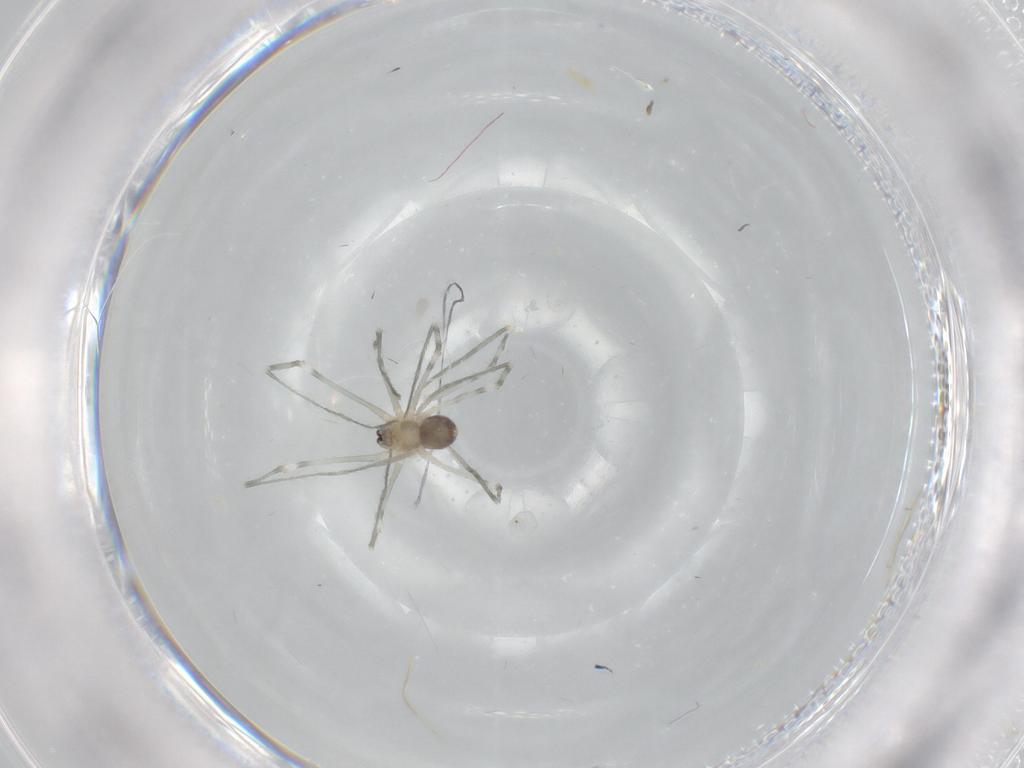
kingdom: Animalia
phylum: Arthropoda
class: Arachnida
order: Araneae
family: Pholcidae
